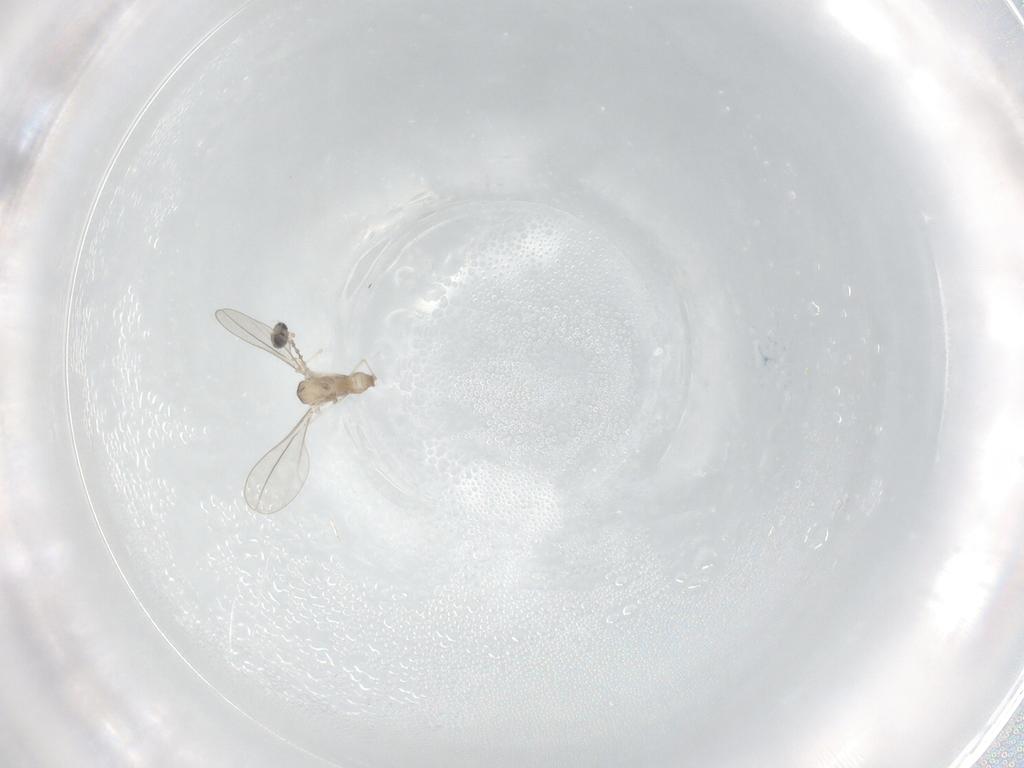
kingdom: Animalia
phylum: Arthropoda
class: Insecta
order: Diptera
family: Cecidomyiidae
